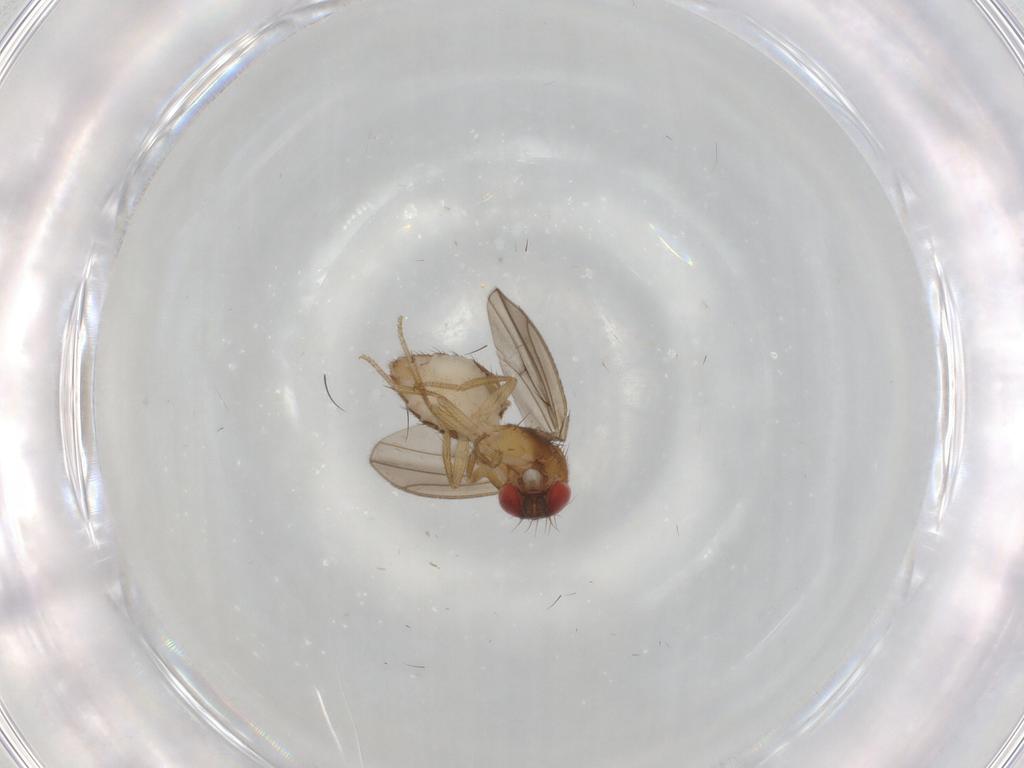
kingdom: Animalia
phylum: Arthropoda
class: Insecta
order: Diptera
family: Drosophilidae
